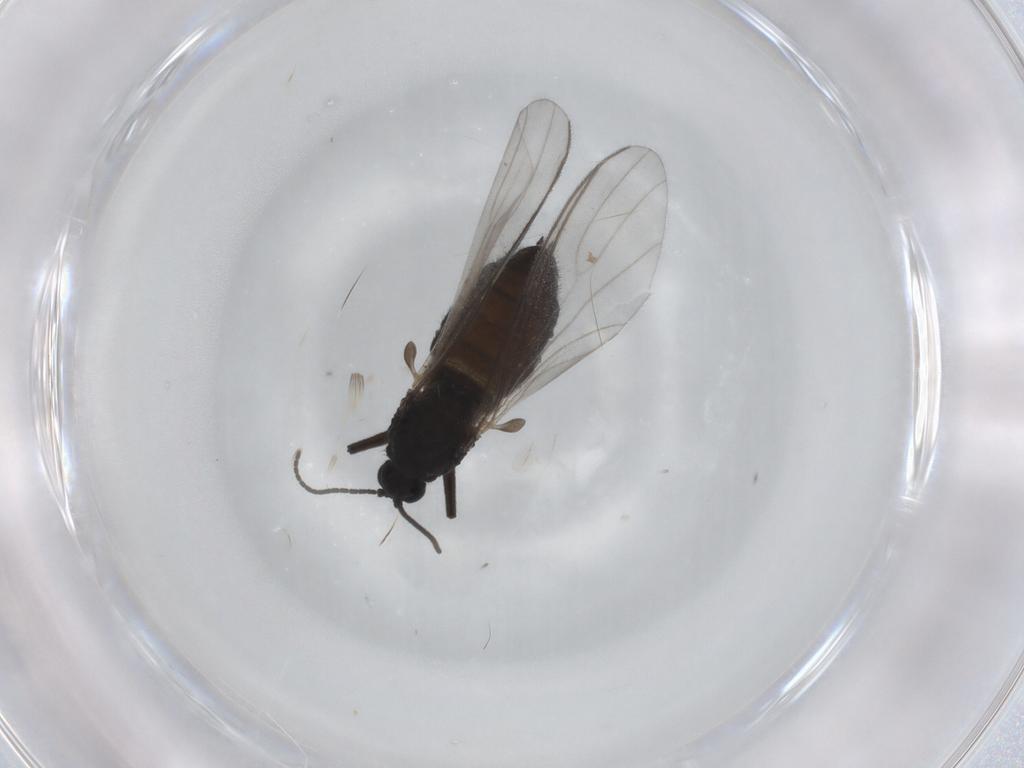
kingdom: Animalia
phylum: Arthropoda
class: Insecta
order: Diptera
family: Sciaridae
